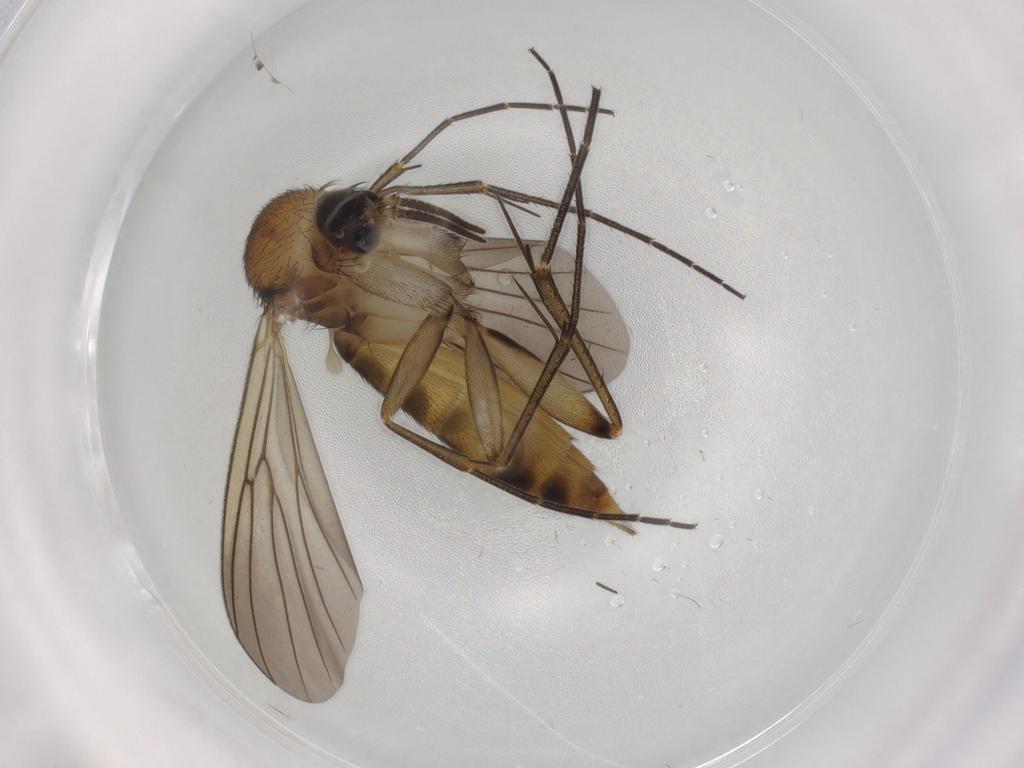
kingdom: Animalia
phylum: Arthropoda
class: Insecta
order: Diptera
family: Mycetophilidae
